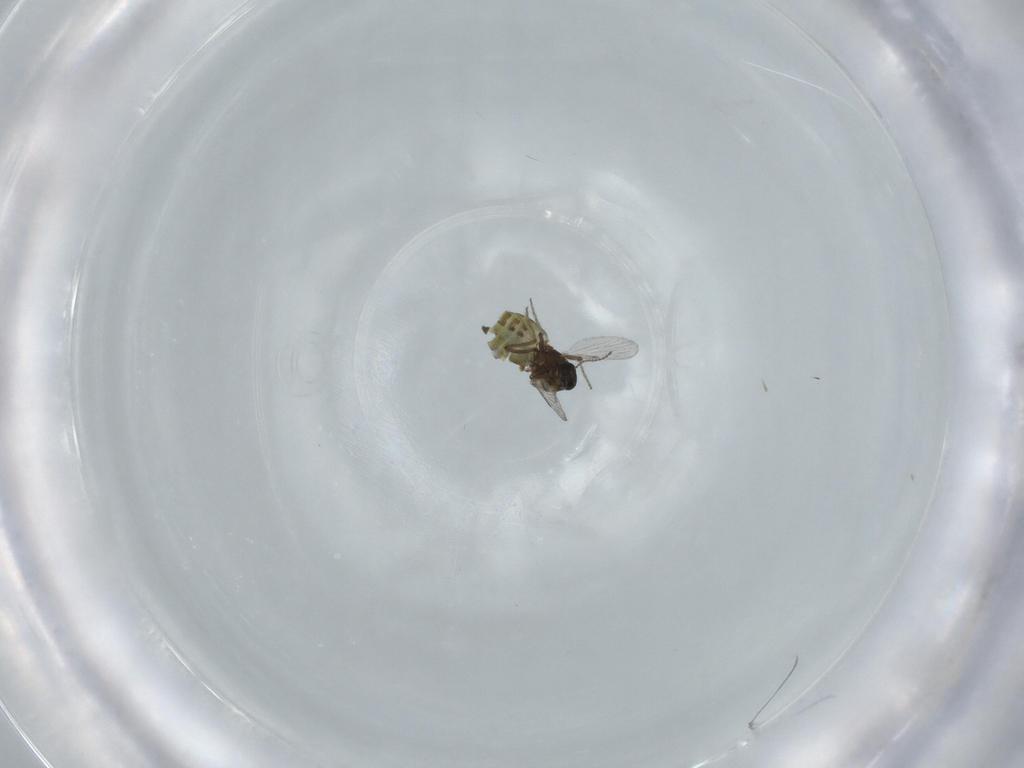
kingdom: Animalia
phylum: Arthropoda
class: Insecta
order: Diptera
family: Ceratopogonidae
